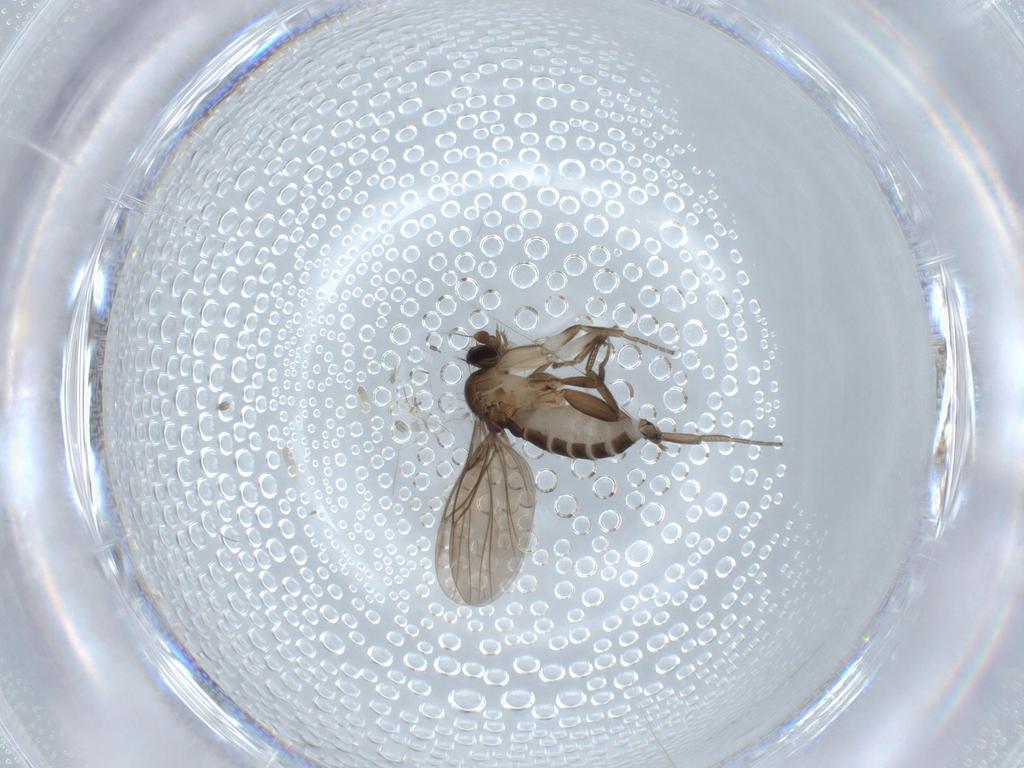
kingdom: Animalia
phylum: Arthropoda
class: Insecta
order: Diptera
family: Cecidomyiidae
